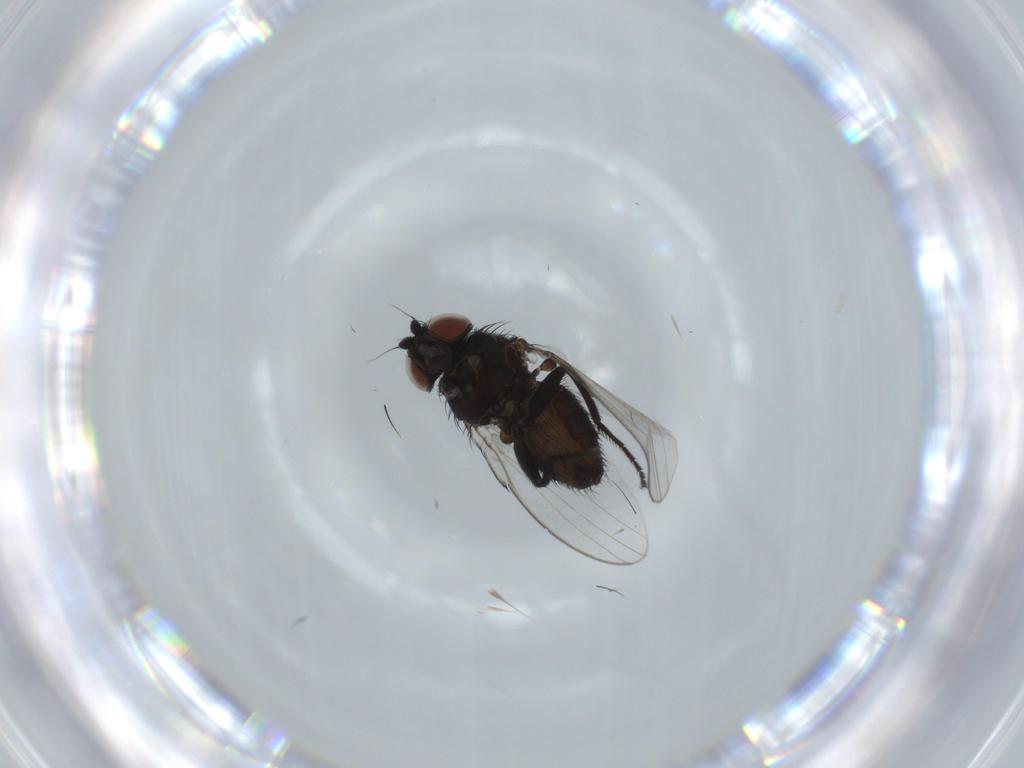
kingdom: Animalia
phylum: Arthropoda
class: Insecta
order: Diptera
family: Milichiidae
